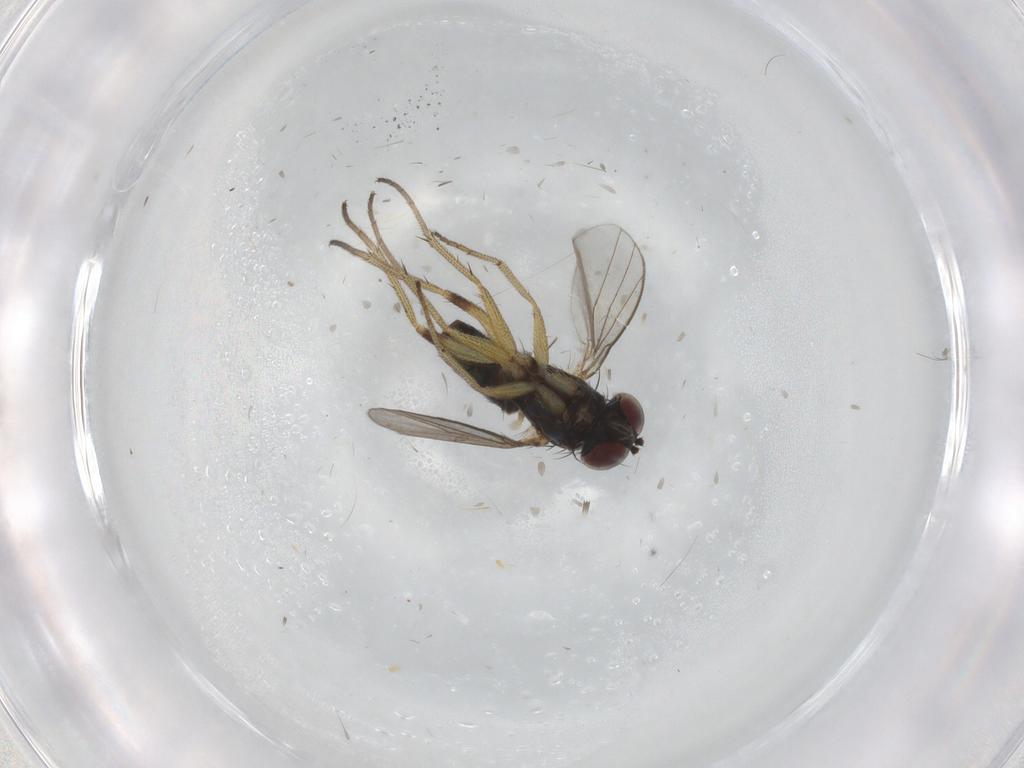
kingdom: Animalia
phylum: Arthropoda
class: Insecta
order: Diptera
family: Dolichopodidae
